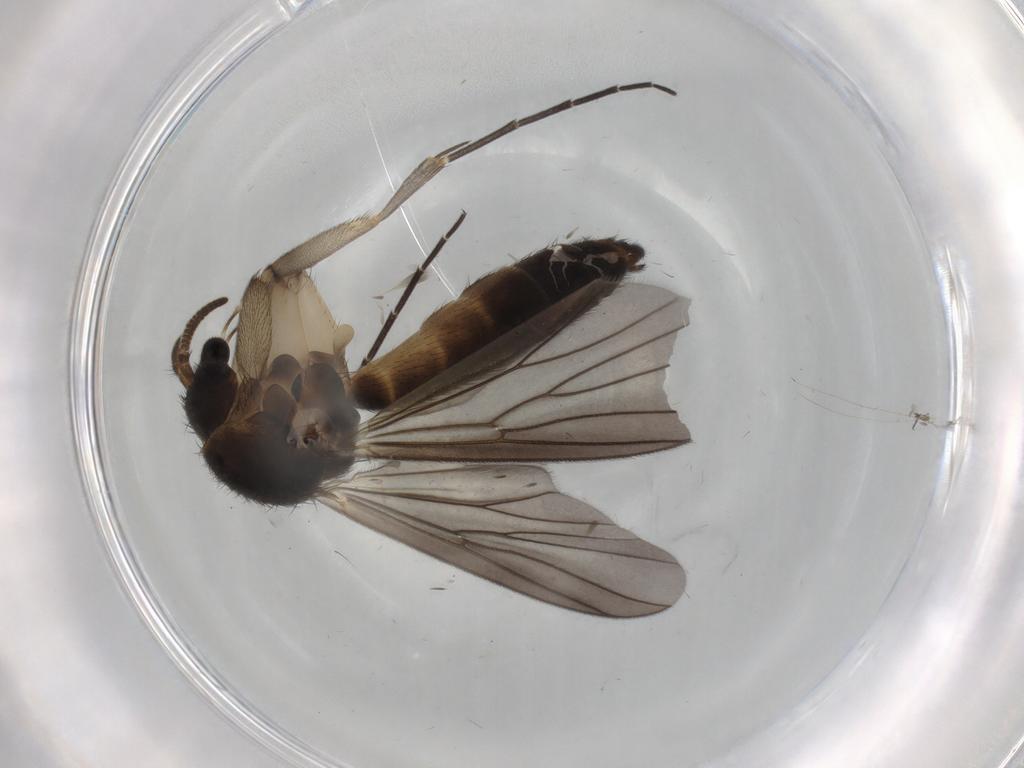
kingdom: Animalia
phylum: Arthropoda
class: Insecta
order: Diptera
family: Mycetophilidae
